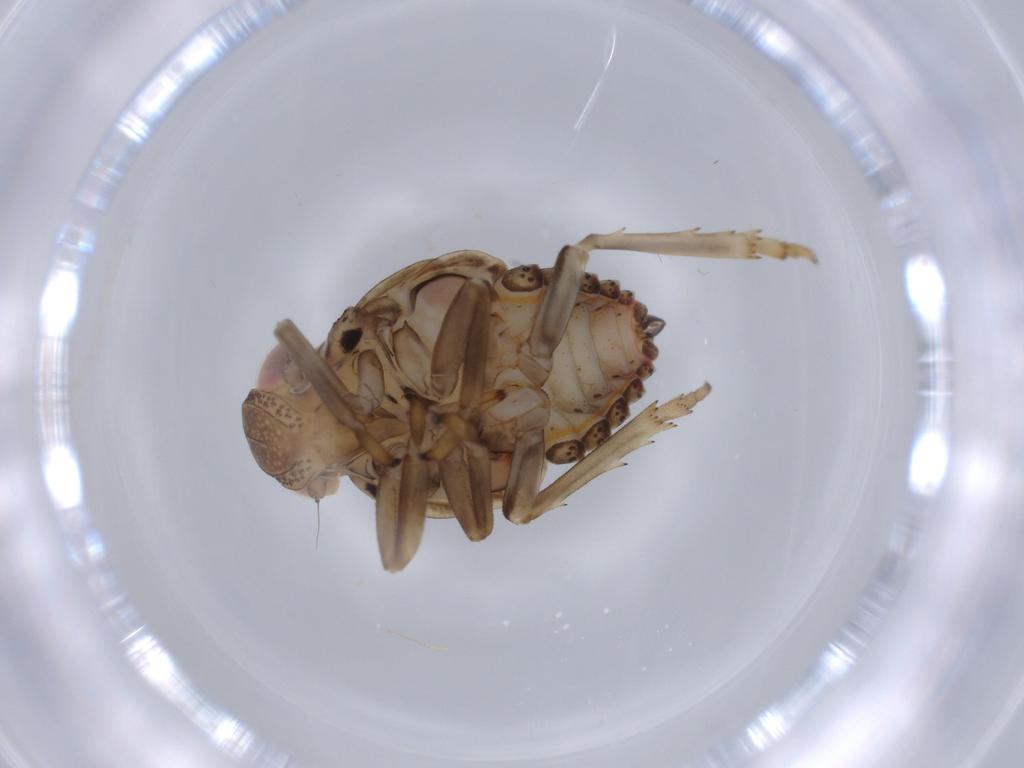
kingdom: Animalia
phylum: Arthropoda
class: Insecta
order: Hemiptera
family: Issidae
